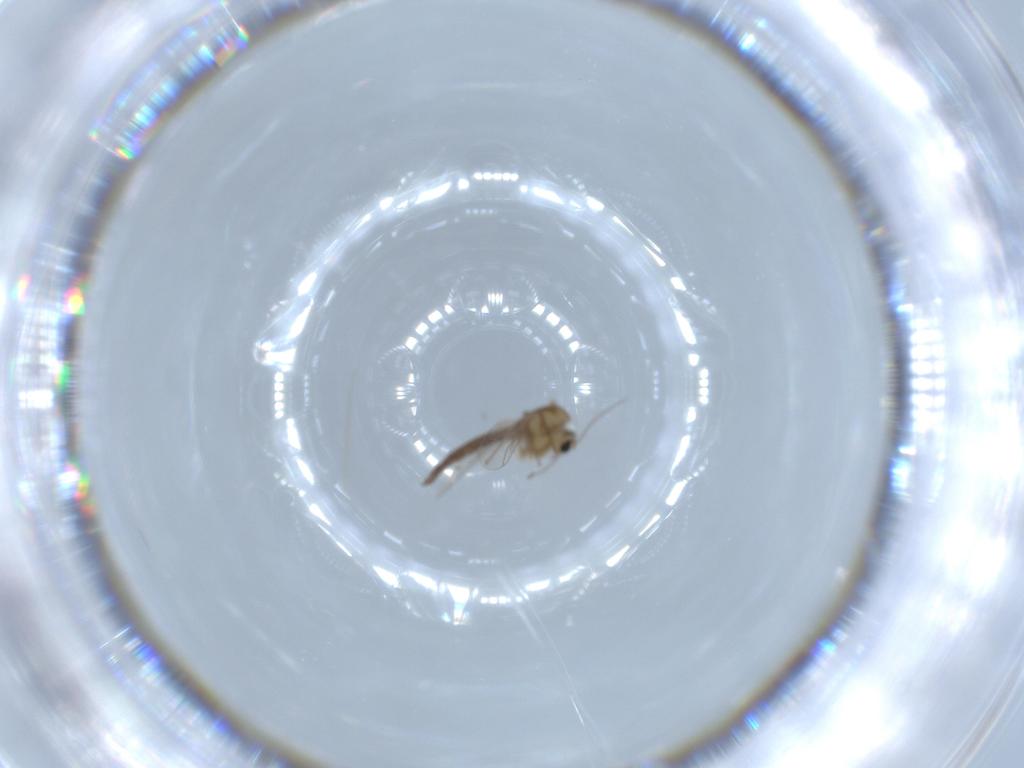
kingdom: Animalia
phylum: Arthropoda
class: Insecta
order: Diptera
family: Chironomidae
